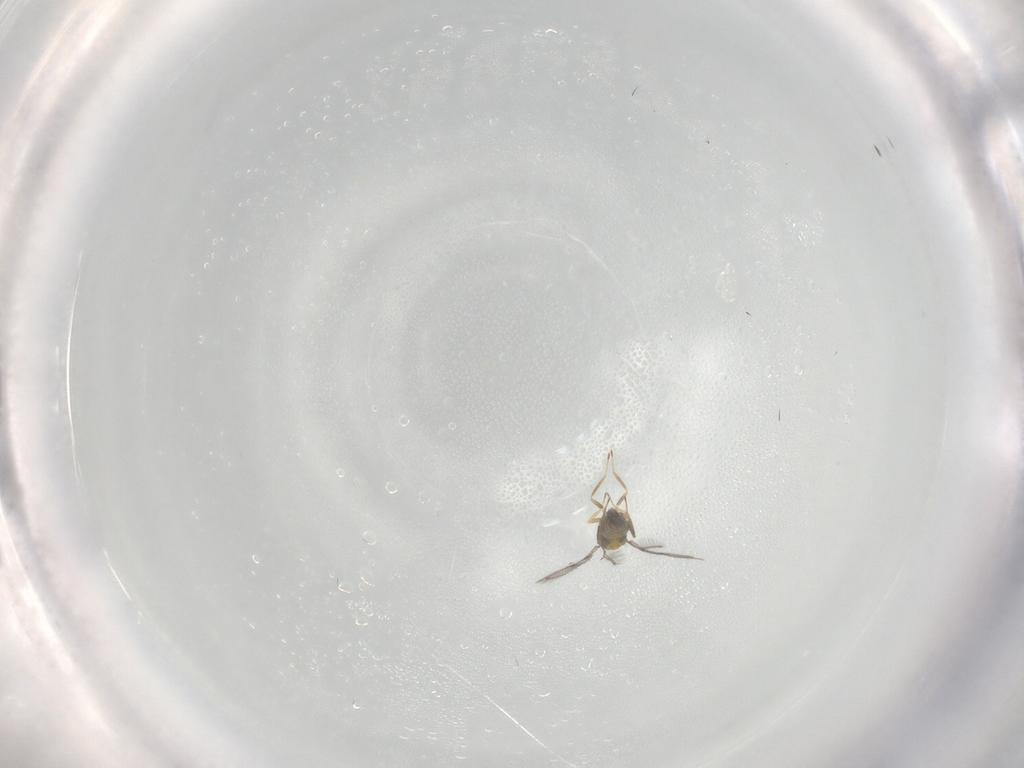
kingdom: Animalia
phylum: Arthropoda
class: Insecta
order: Hymenoptera
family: Trichogrammatidae
